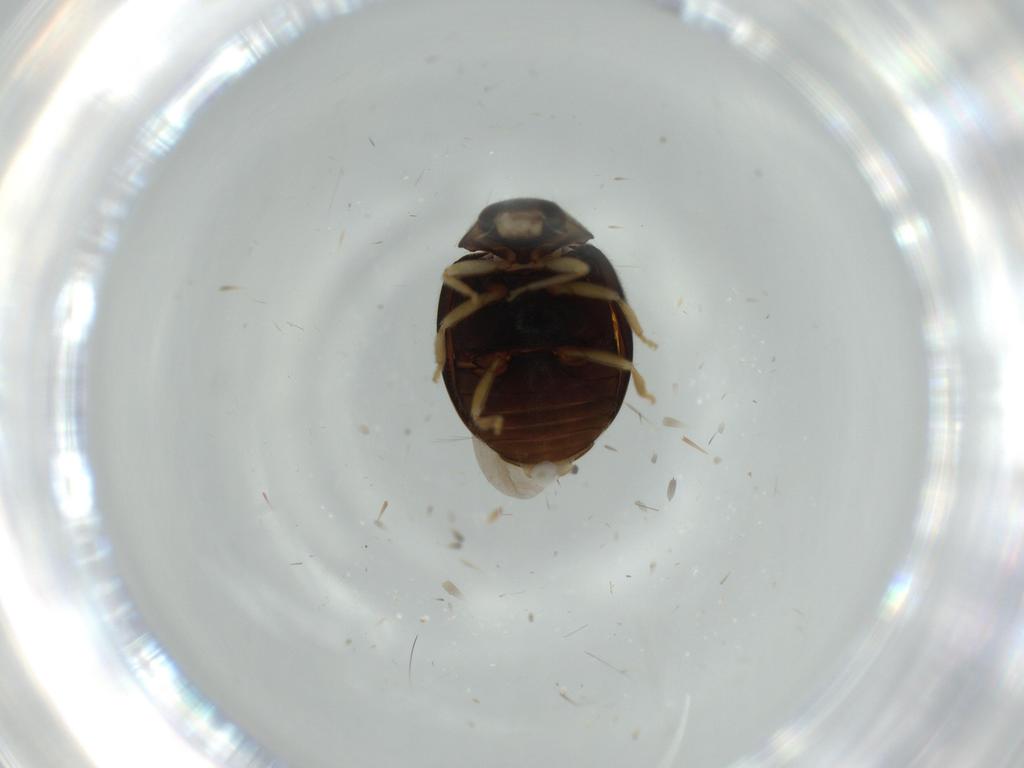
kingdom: Animalia
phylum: Arthropoda
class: Insecta
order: Coleoptera
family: Coccinellidae
